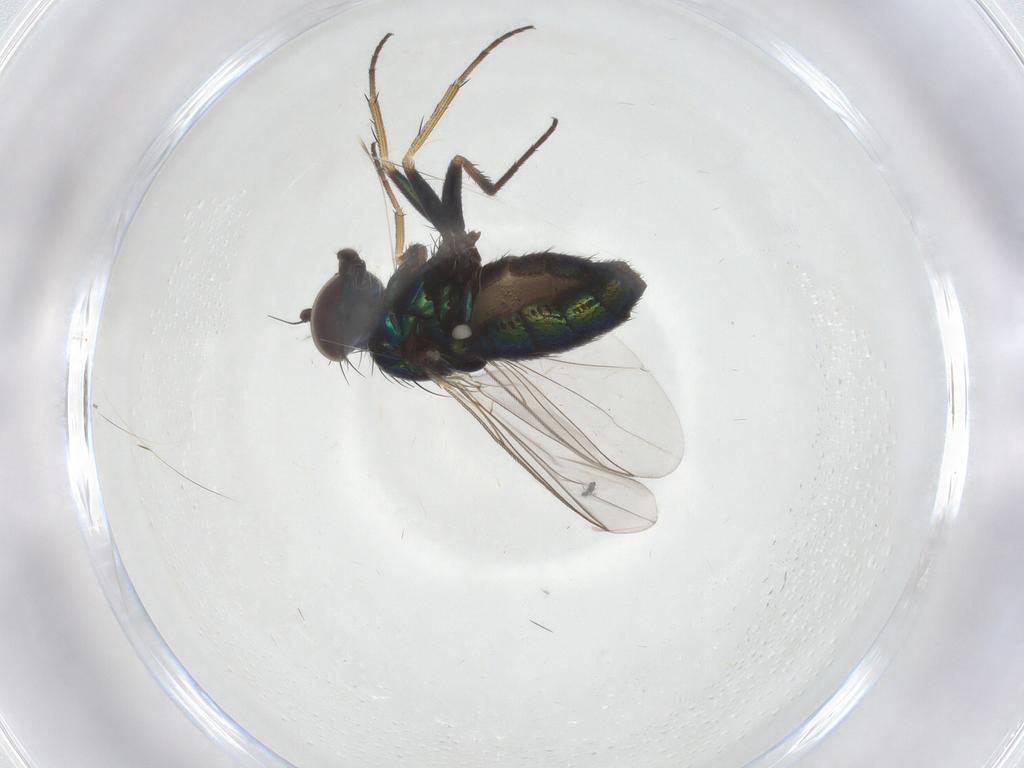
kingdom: Animalia
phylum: Arthropoda
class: Insecta
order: Diptera
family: Dolichopodidae
